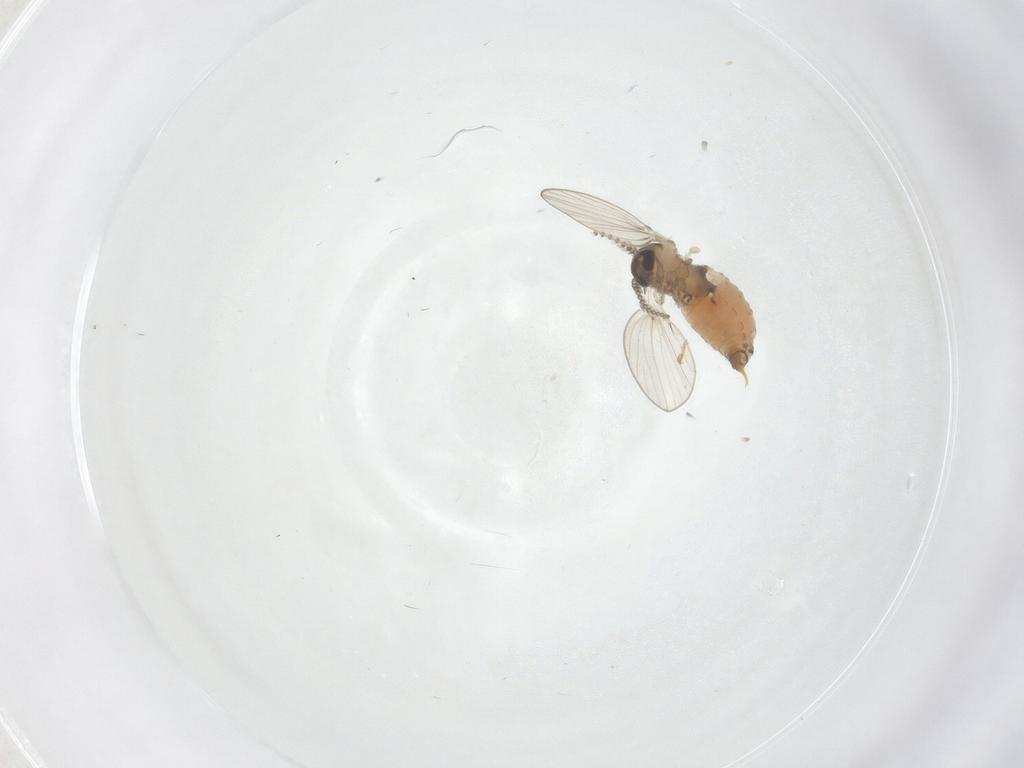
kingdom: Animalia
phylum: Arthropoda
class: Insecta
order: Diptera
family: Psychodidae
